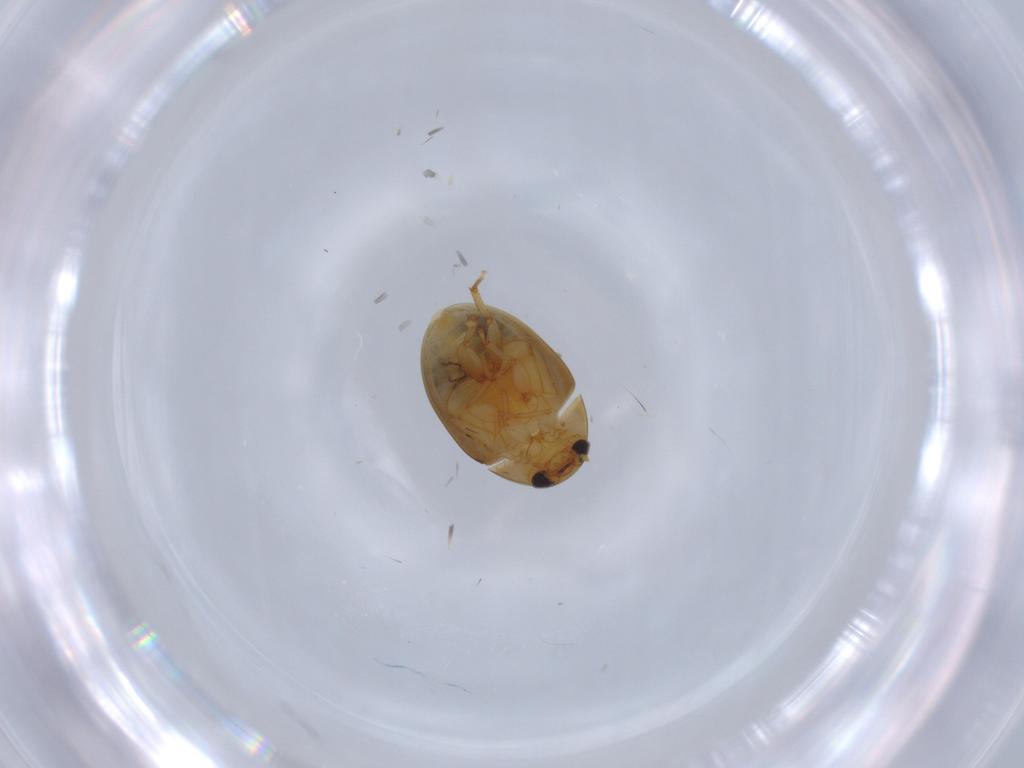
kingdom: Animalia
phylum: Arthropoda
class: Insecta
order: Coleoptera
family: Phalacridae
